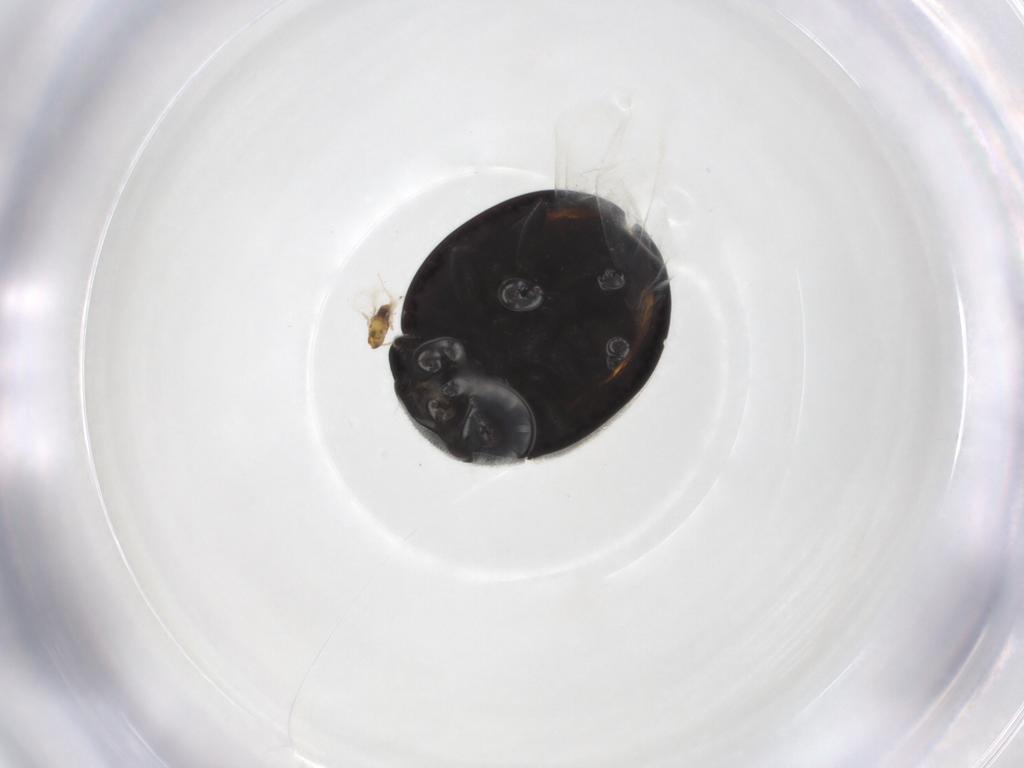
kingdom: Animalia
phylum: Arthropoda
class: Insecta
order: Coleoptera
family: Coccinellidae
